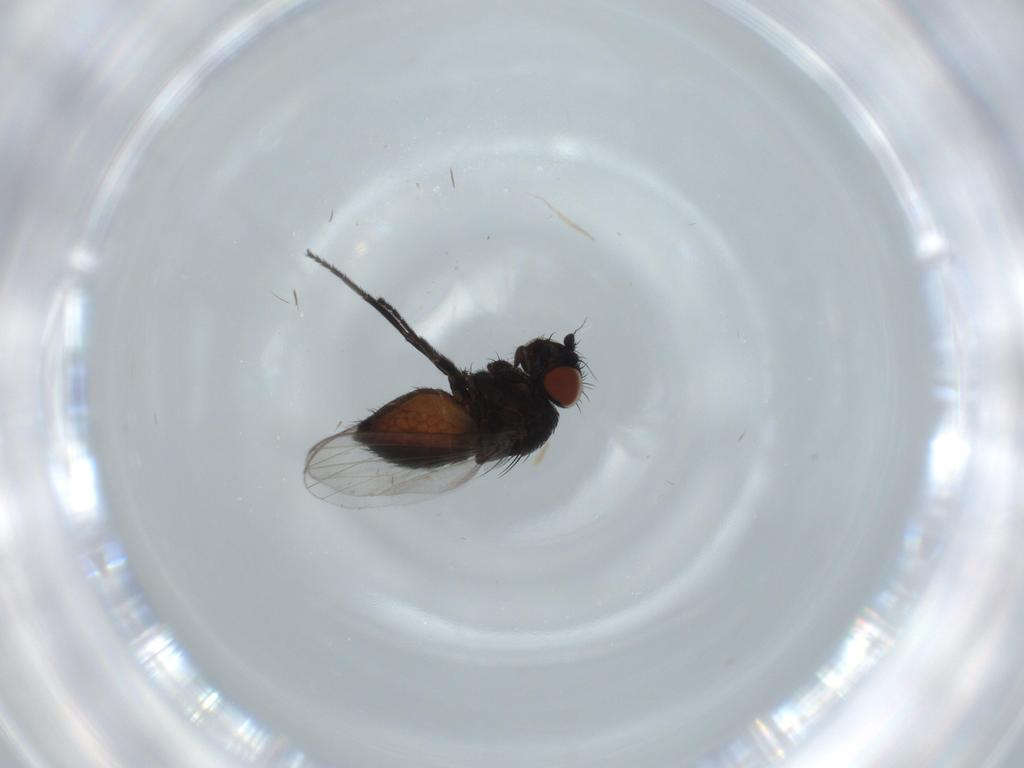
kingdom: Animalia
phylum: Arthropoda
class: Insecta
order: Diptera
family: Milichiidae
